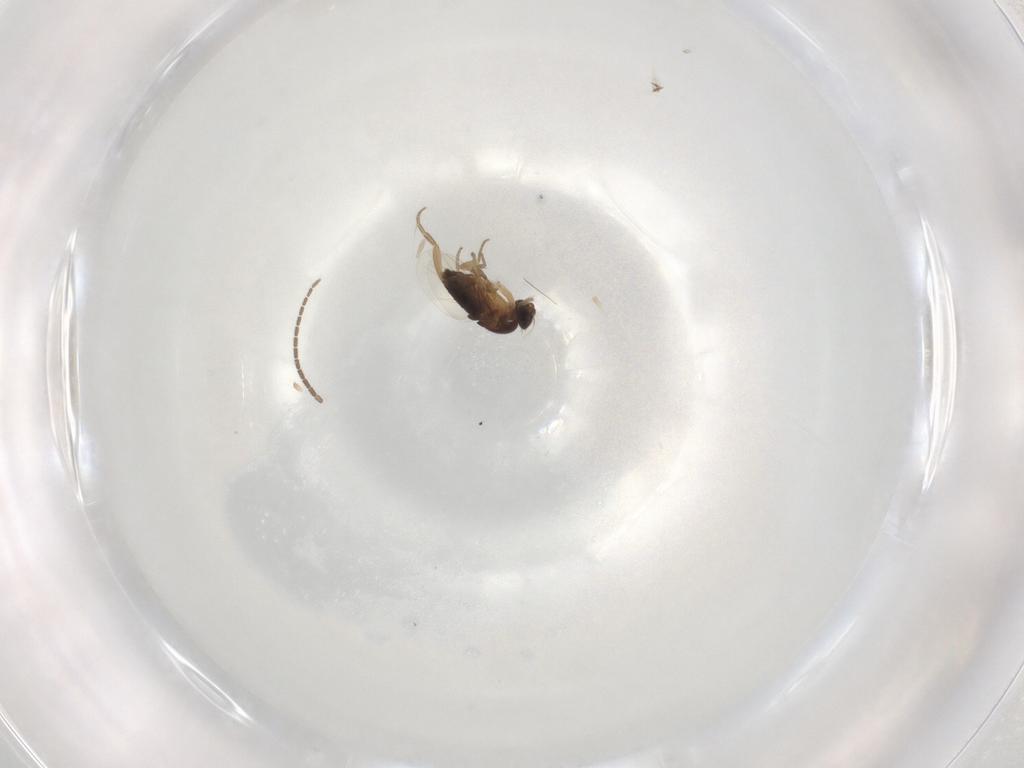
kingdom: Animalia
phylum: Arthropoda
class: Insecta
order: Diptera
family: Phoridae
